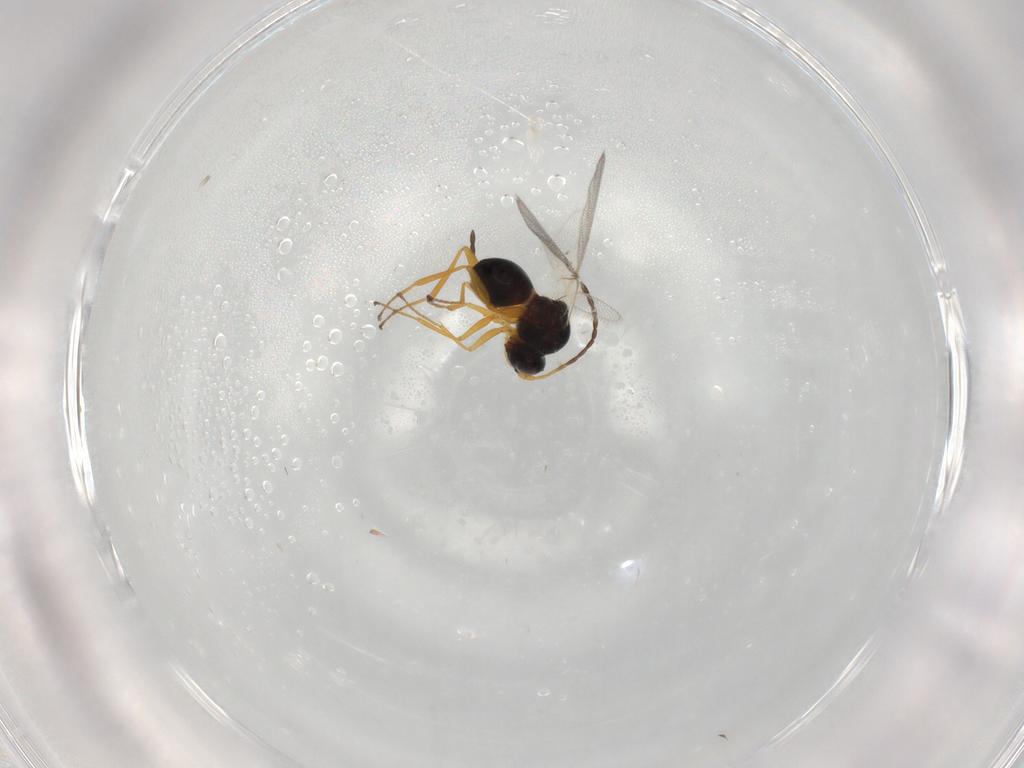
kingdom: Animalia
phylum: Arthropoda
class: Insecta
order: Hymenoptera
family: Figitidae
